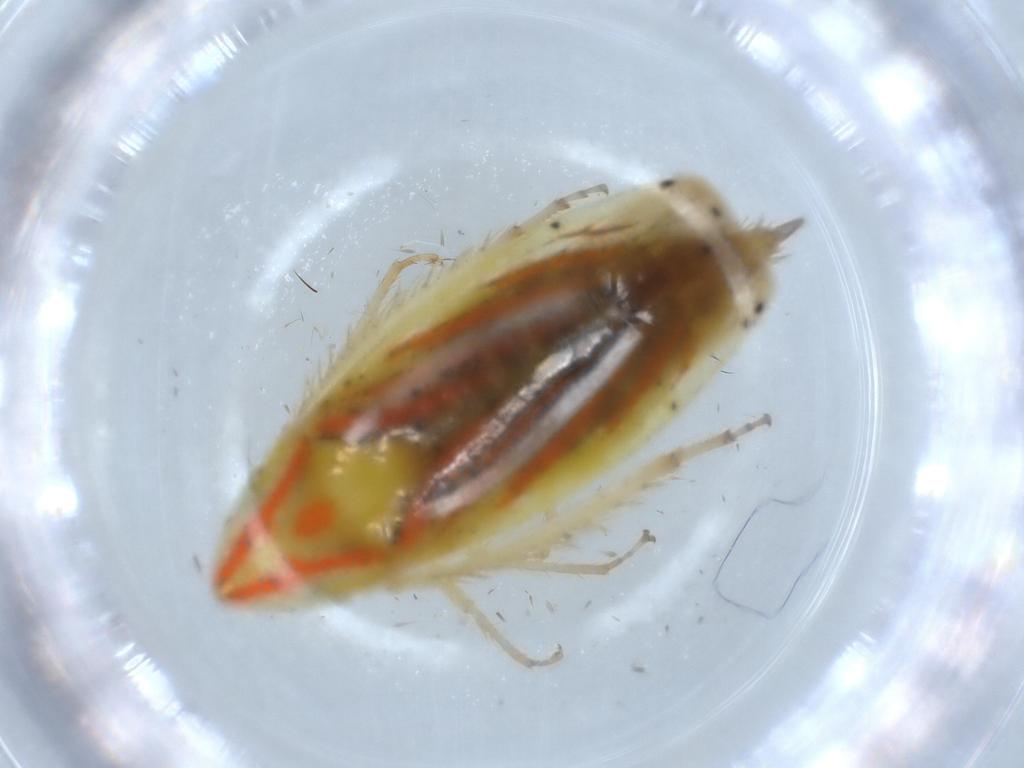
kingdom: Animalia
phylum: Arthropoda
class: Insecta
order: Hemiptera
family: Cicadellidae
